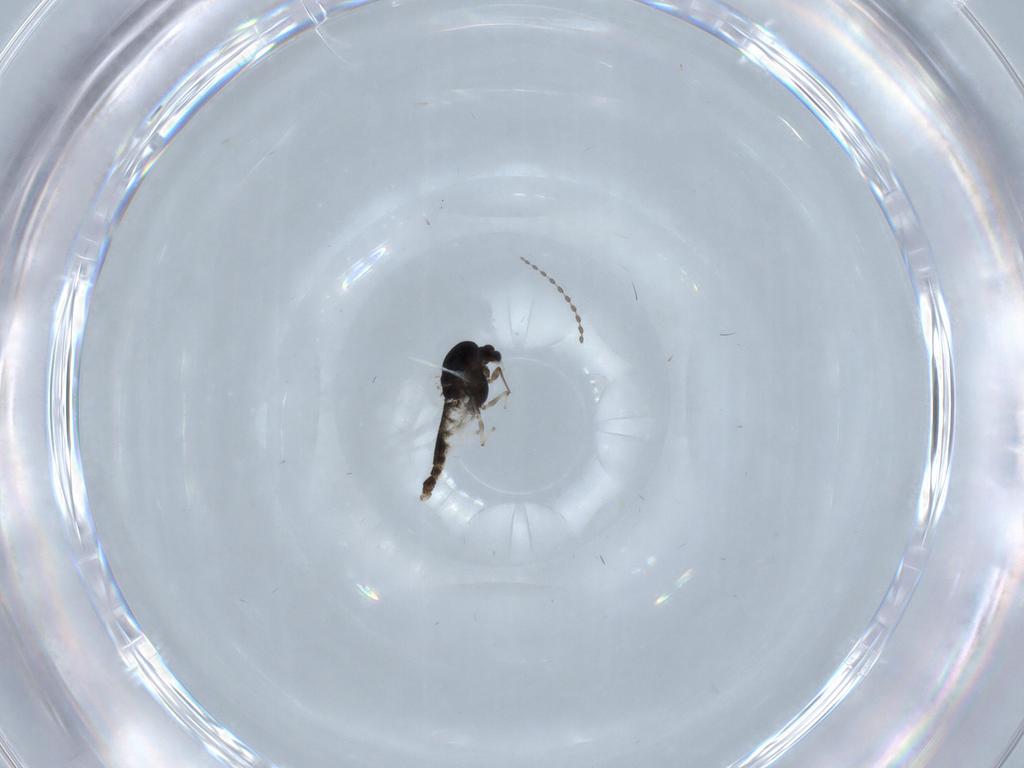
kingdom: Animalia
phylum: Arthropoda
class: Insecta
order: Diptera
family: Chironomidae
